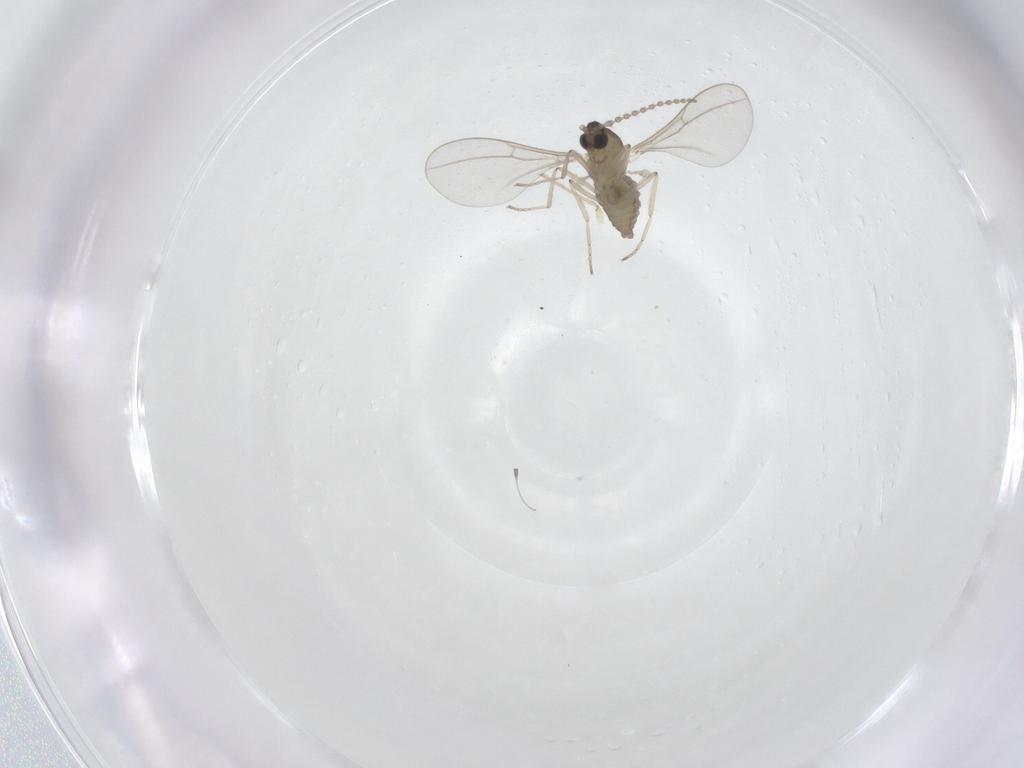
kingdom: Animalia
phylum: Arthropoda
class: Insecta
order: Diptera
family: Cecidomyiidae
